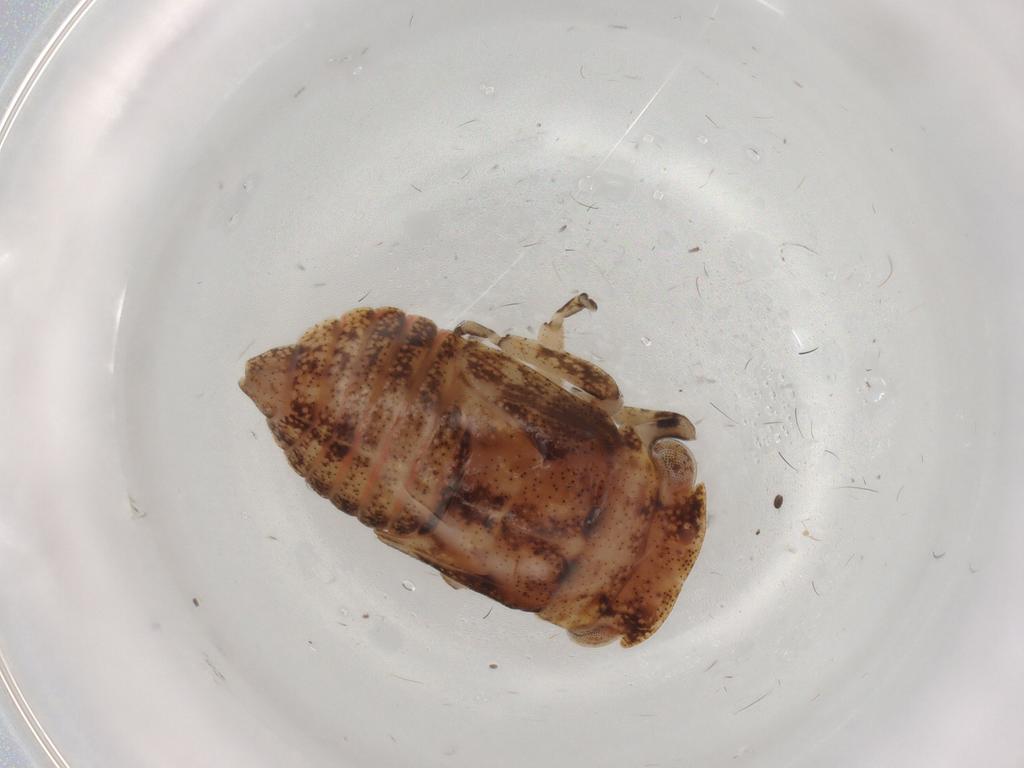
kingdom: Animalia
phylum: Arthropoda
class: Insecta
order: Hemiptera
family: Cicadellidae
